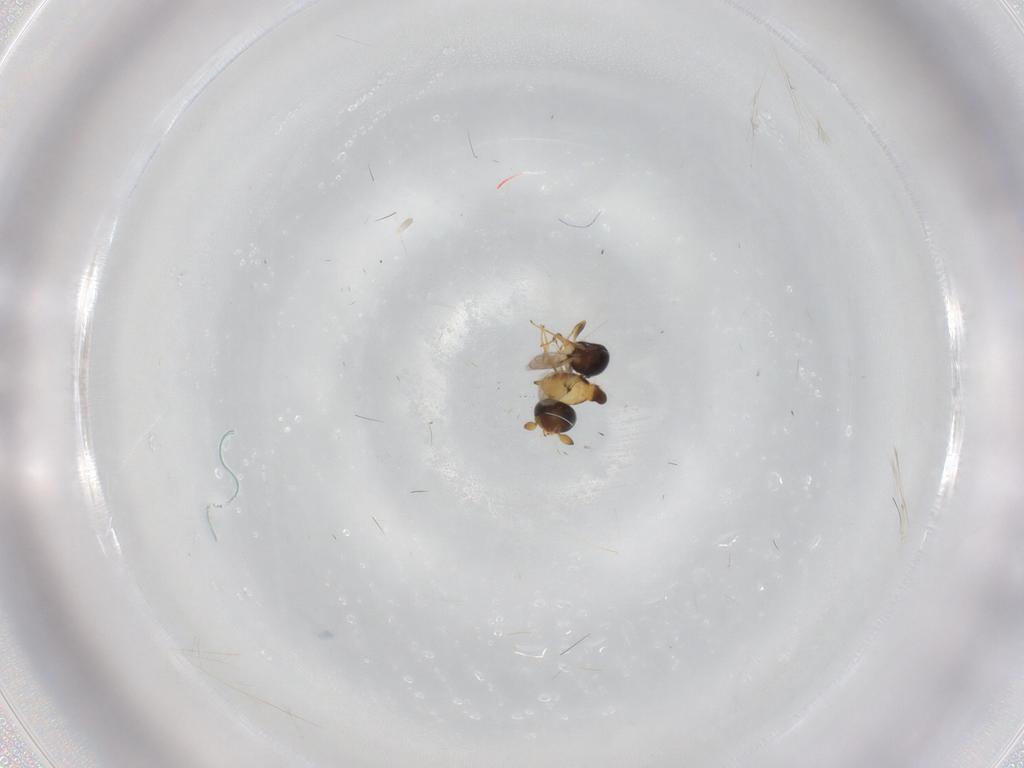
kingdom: Animalia
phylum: Arthropoda
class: Insecta
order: Hymenoptera
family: Scelionidae
